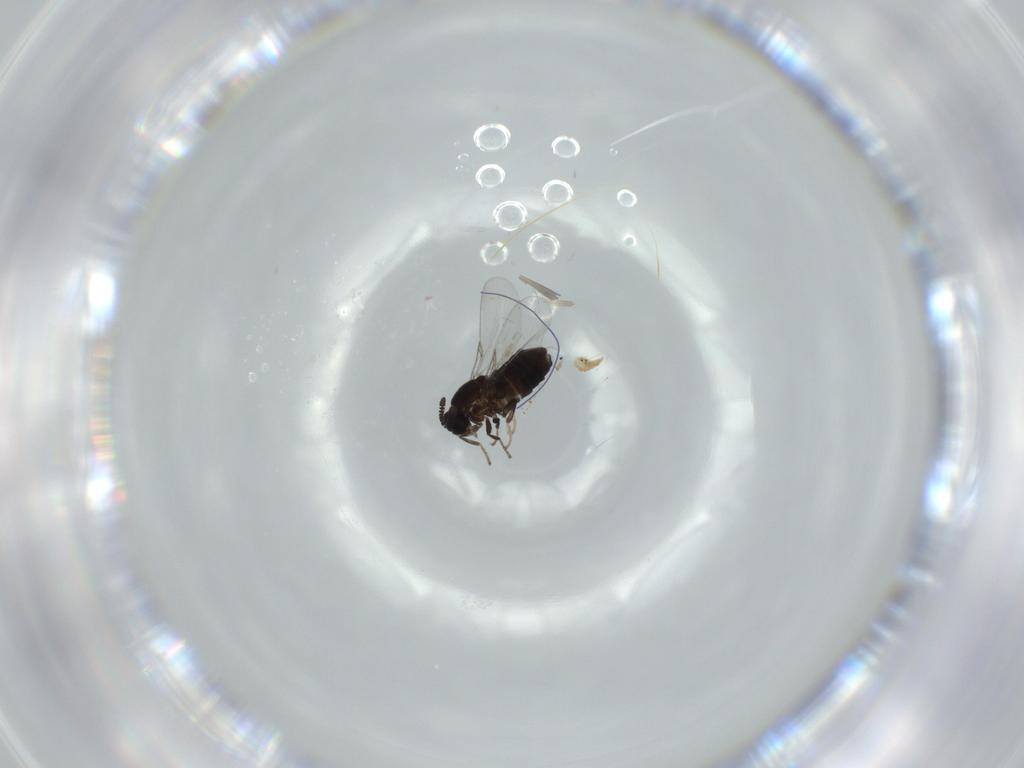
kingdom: Animalia
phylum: Arthropoda
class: Insecta
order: Diptera
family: Scatopsidae
